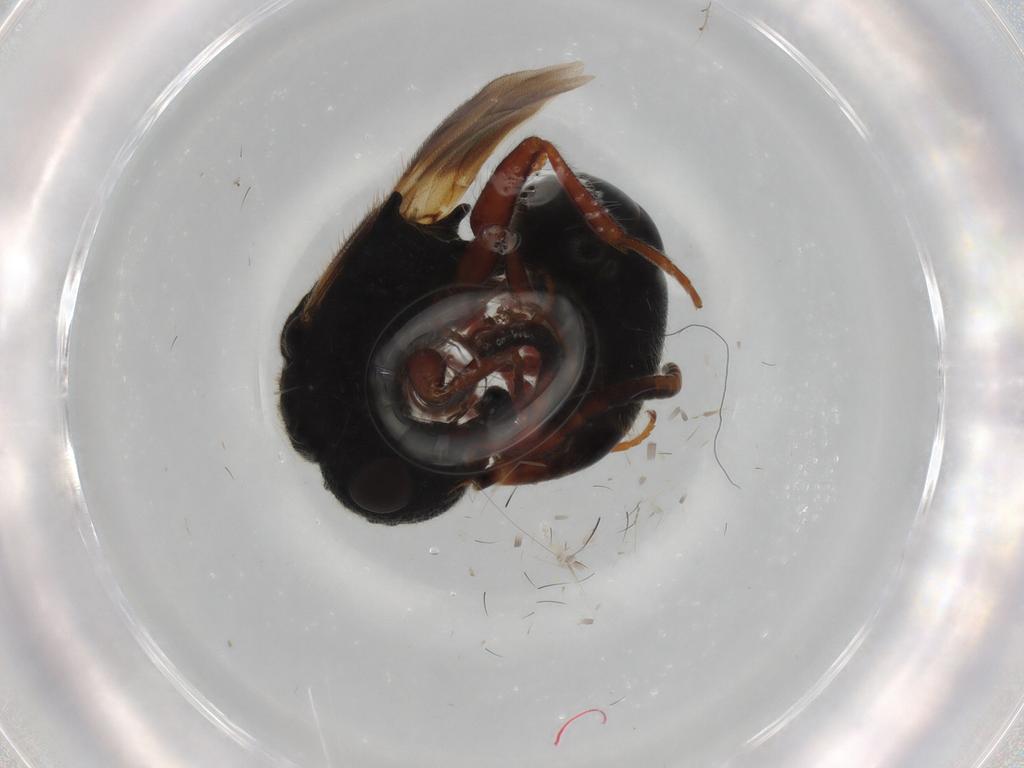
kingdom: Animalia
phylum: Arthropoda
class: Insecta
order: Hymenoptera
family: Bethylidae
